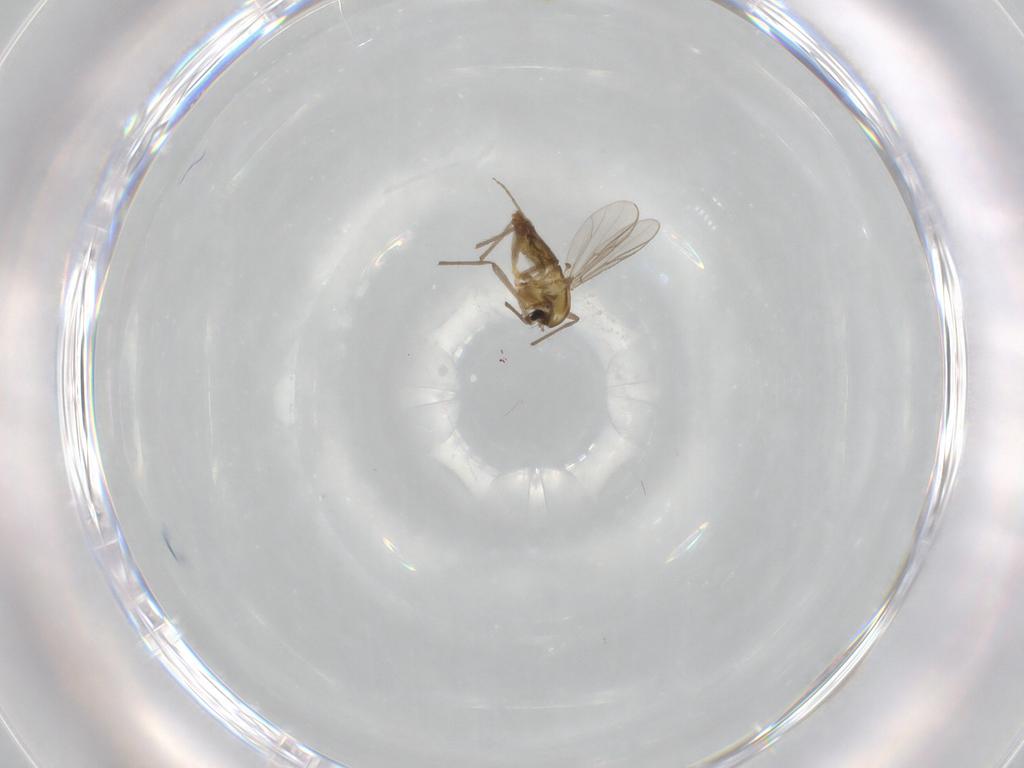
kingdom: Animalia
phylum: Arthropoda
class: Insecta
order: Diptera
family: Chironomidae
